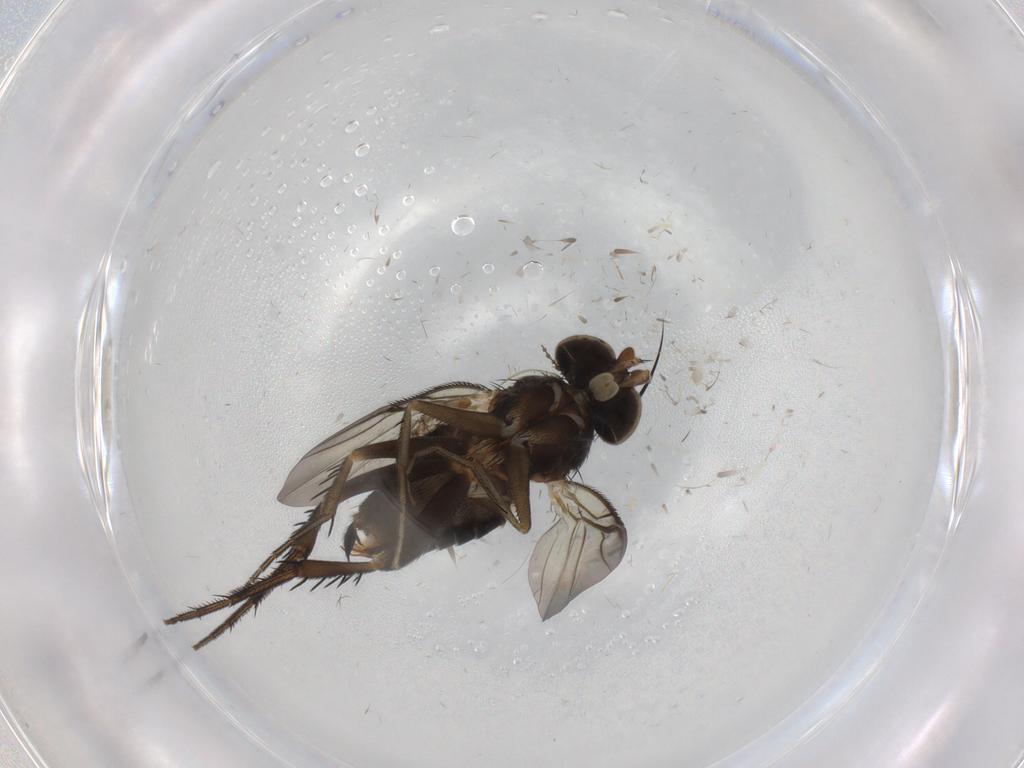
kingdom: Animalia
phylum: Arthropoda
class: Insecta
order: Diptera
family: Phoridae
